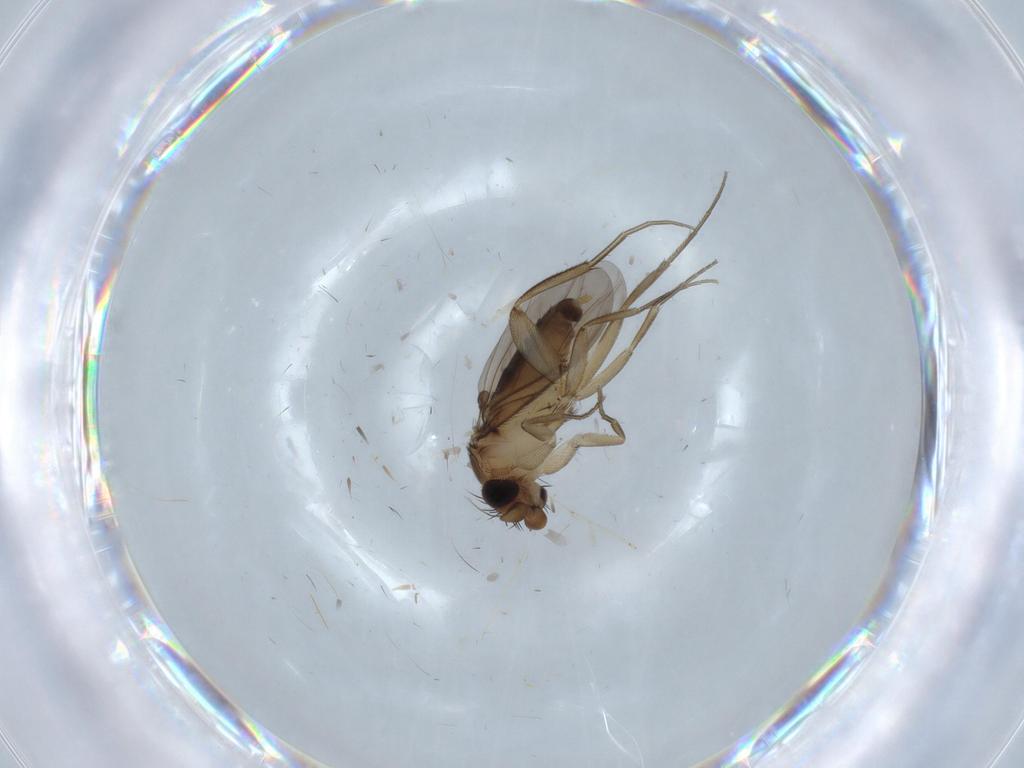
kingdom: Animalia
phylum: Arthropoda
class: Insecta
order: Diptera
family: Phoridae
